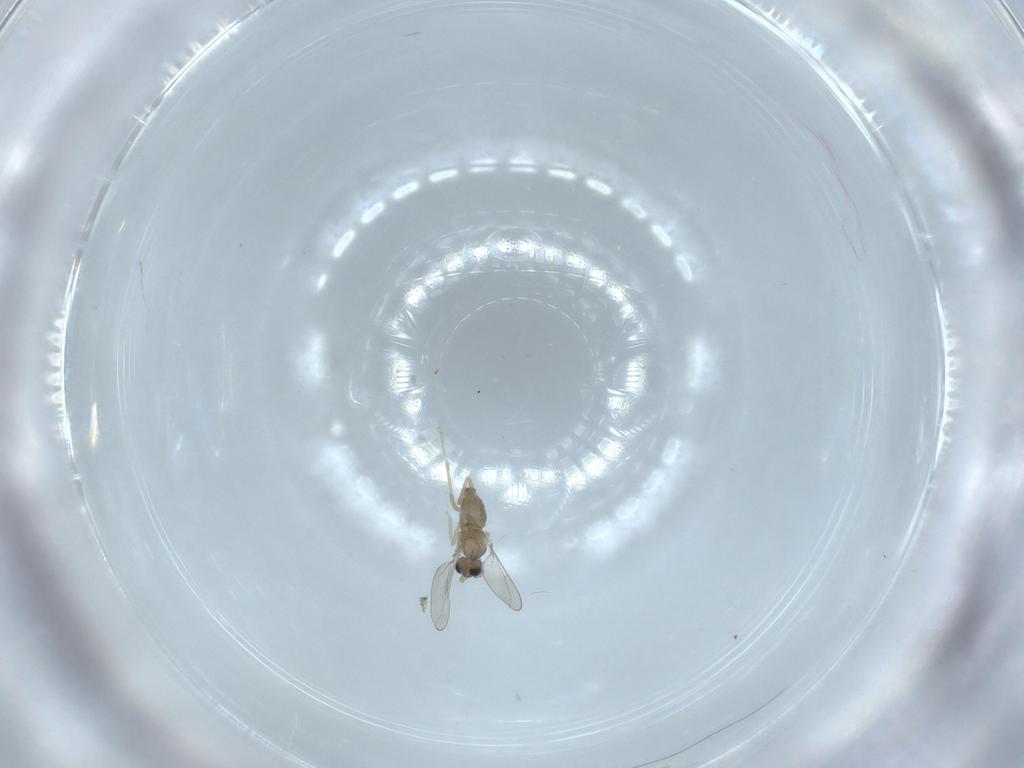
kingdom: Animalia
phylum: Arthropoda
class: Insecta
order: Diptera
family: Cecidomyiidae
